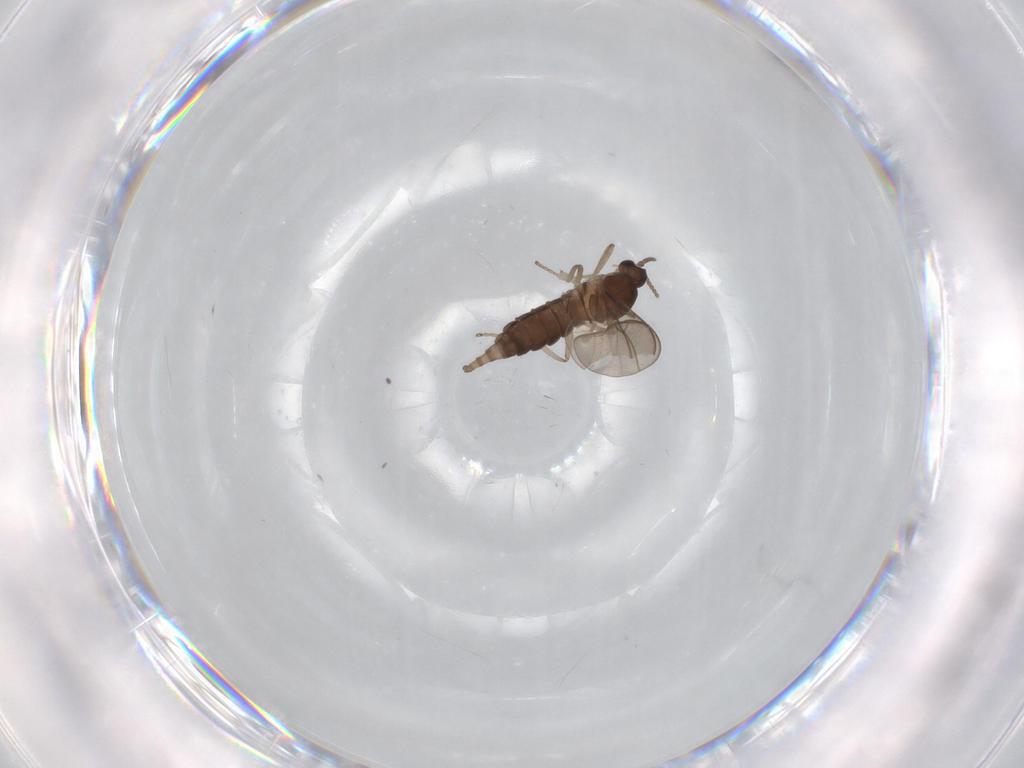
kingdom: Animalia
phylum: Arthropoda
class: Insecta
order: Diptera
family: Cecidomyiidae
